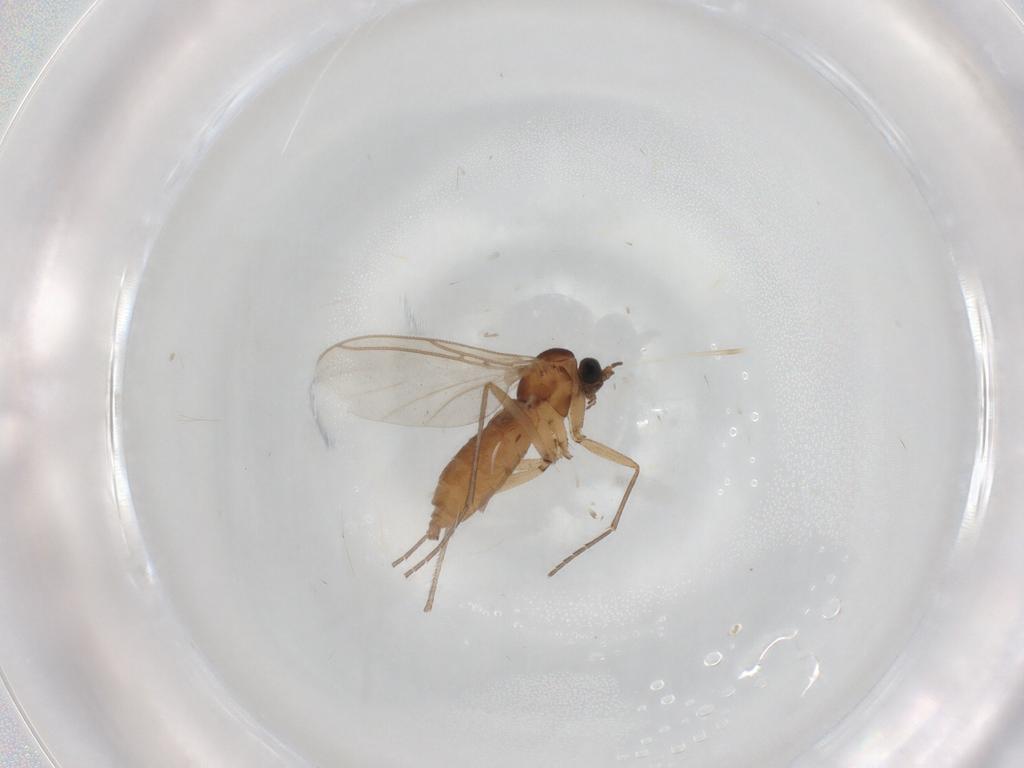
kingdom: Animalia
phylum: Arthropoda
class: Insecta
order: Diptera
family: Sciaridae
